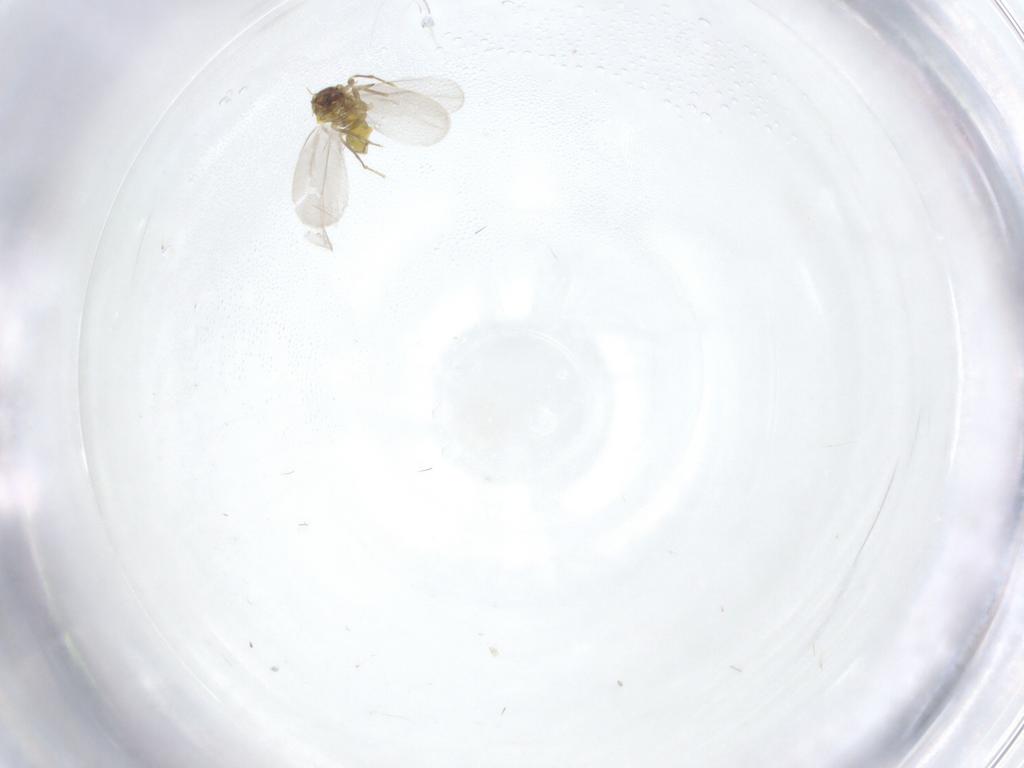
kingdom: Animalia
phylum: Arthropoda
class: Insecta
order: Hemiptera
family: Aleyrodidae
